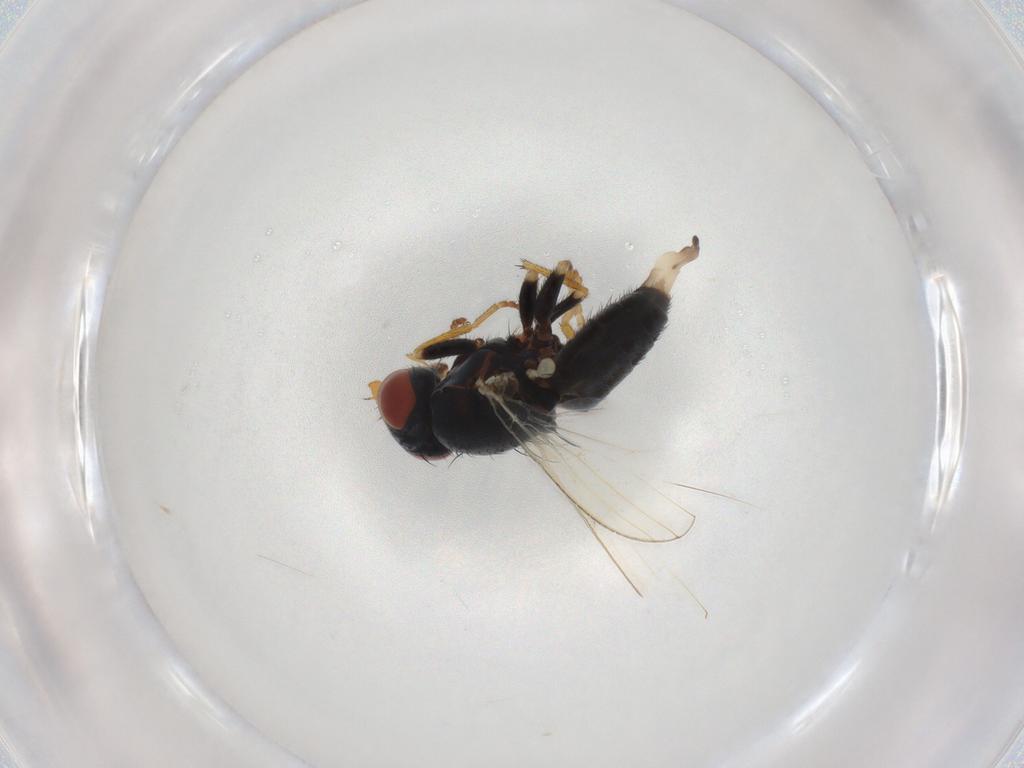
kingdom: Animalia
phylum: Arthropoda
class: Insecta
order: Diptera
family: Chamaemyiidae
